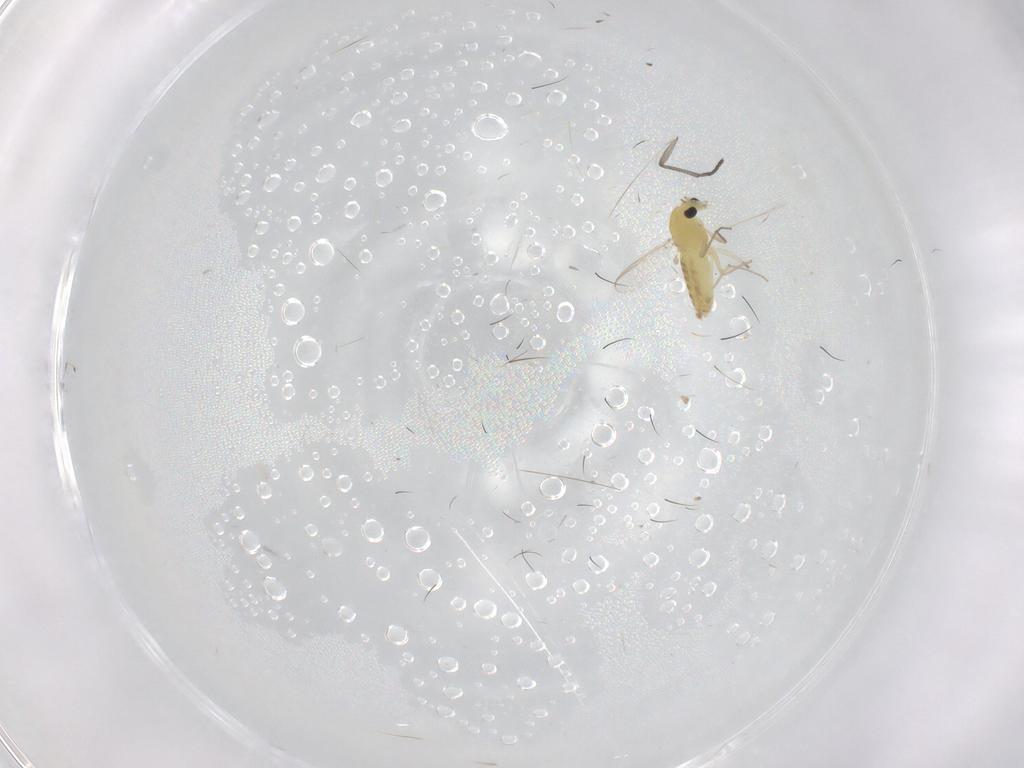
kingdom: Animalia
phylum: Arthropoda
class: Insecta
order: Diptera
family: Chironomidae
